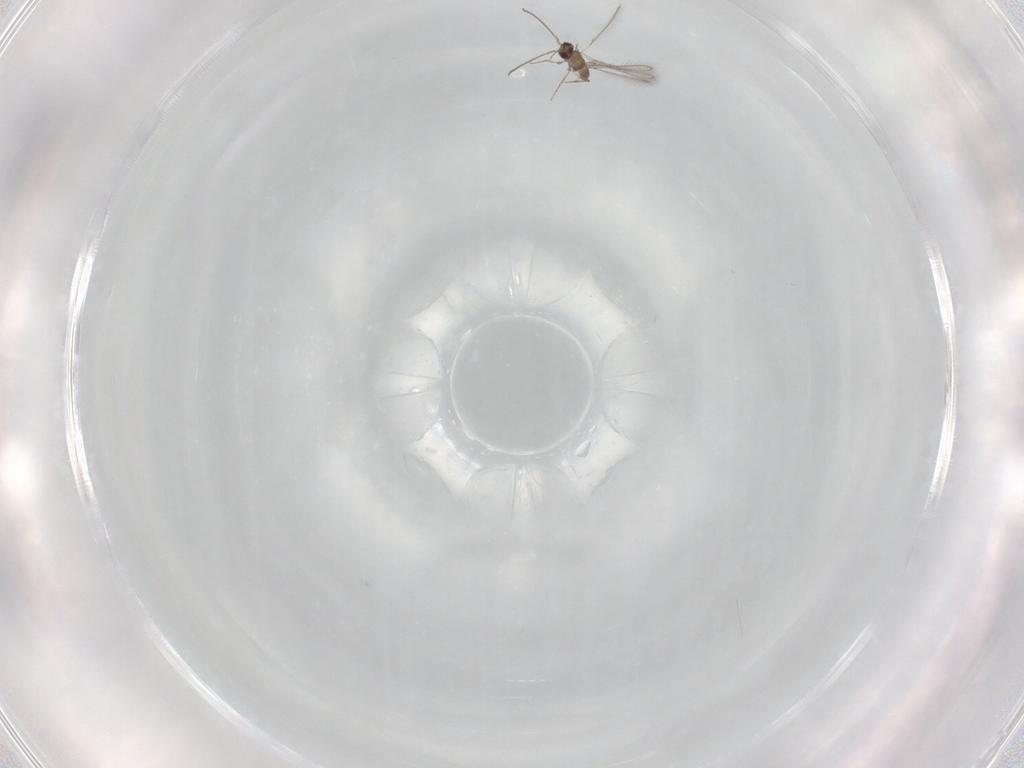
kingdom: Animalia
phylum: Arthropoda
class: Insecta
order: Hymenoptera
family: Mymaridae
